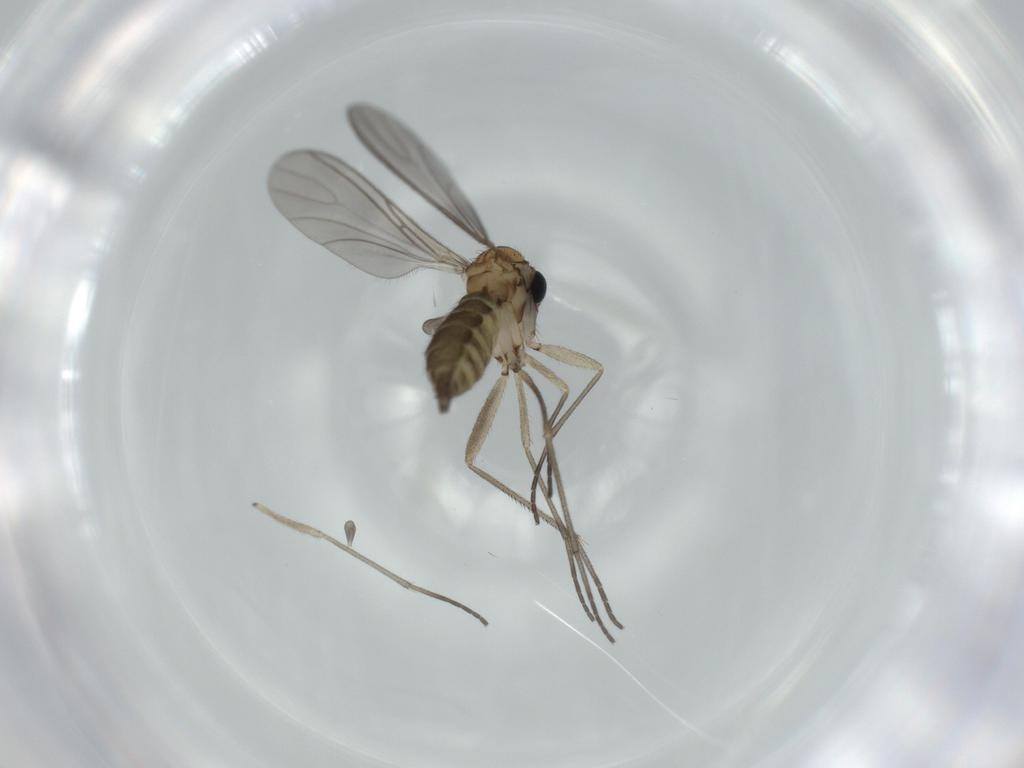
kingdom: Animalia
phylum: Arthropoda
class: Insecta
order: Diptera
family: Sciaridae
